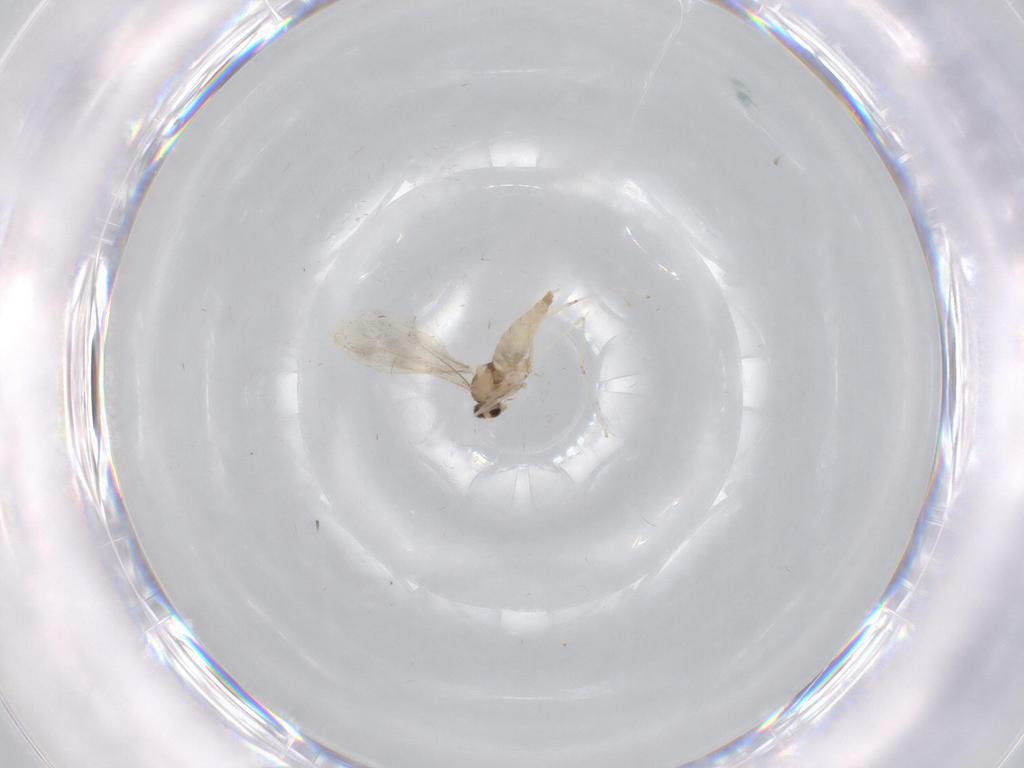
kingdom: Animalia
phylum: Arthropoda
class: Insecta
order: Diptera
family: Cecidomyiidae
